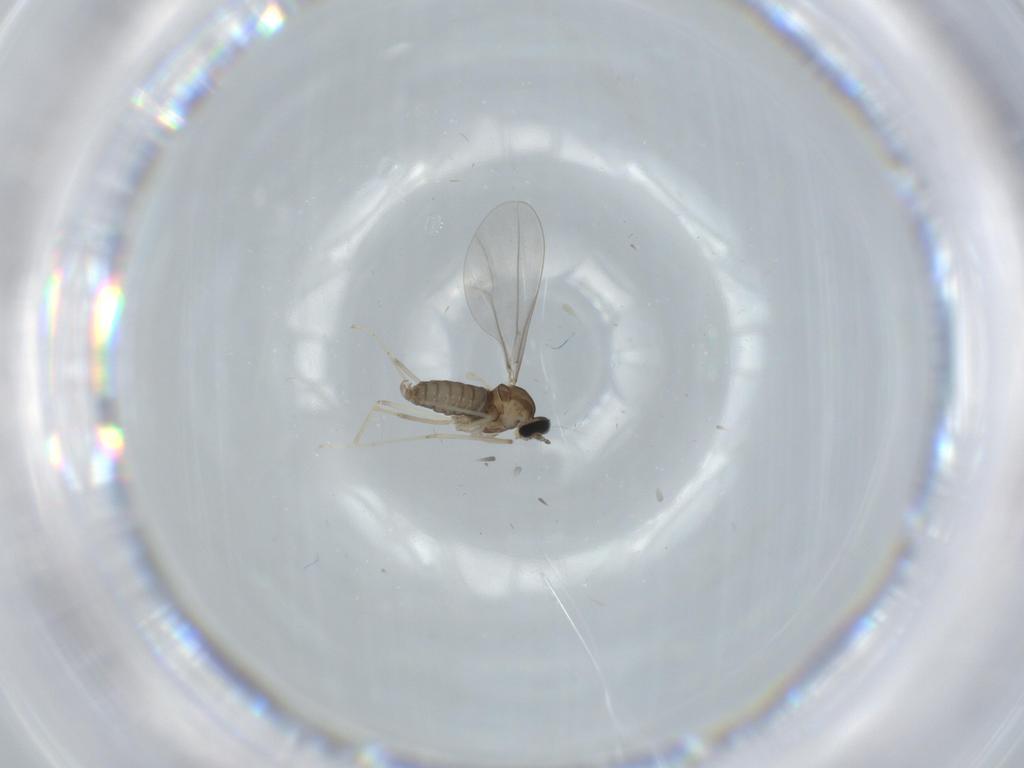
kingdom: Animalia
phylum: Arthropoda
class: Insecta
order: Diptera
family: Cecidomyiidae
